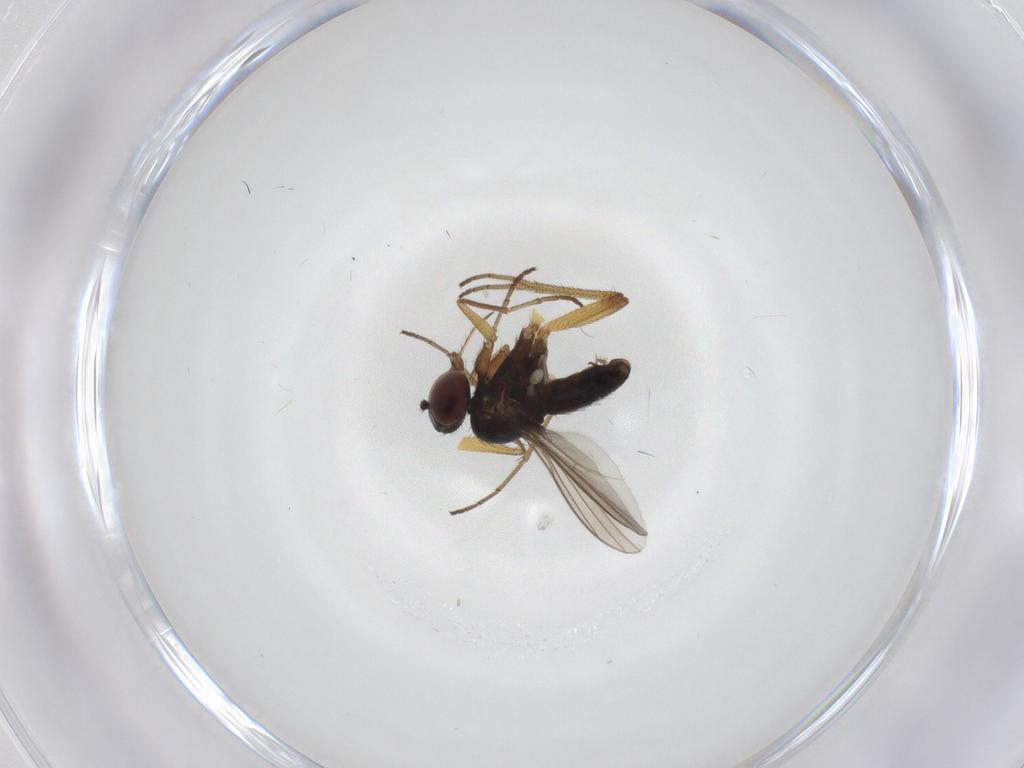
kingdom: Animalia
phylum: Arthropoda
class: Insecta
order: Diptera
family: Dolichopodidae
